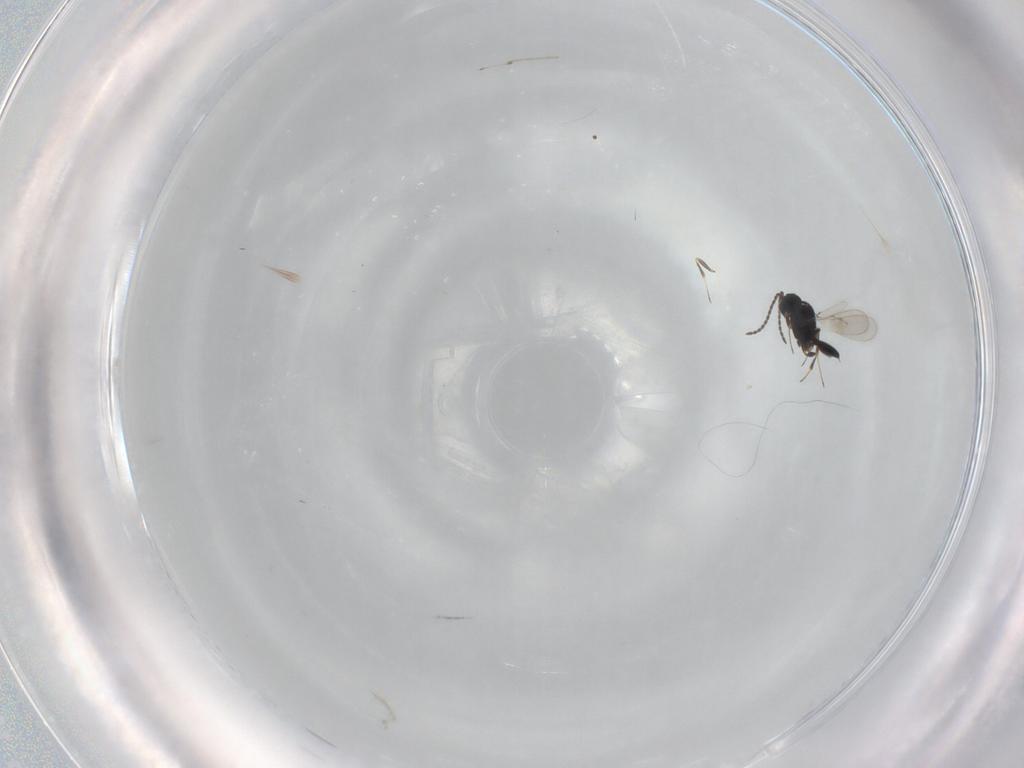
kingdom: Animalia
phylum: Arthropoda
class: Insecta
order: Hymenoptera
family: Scelionidae
